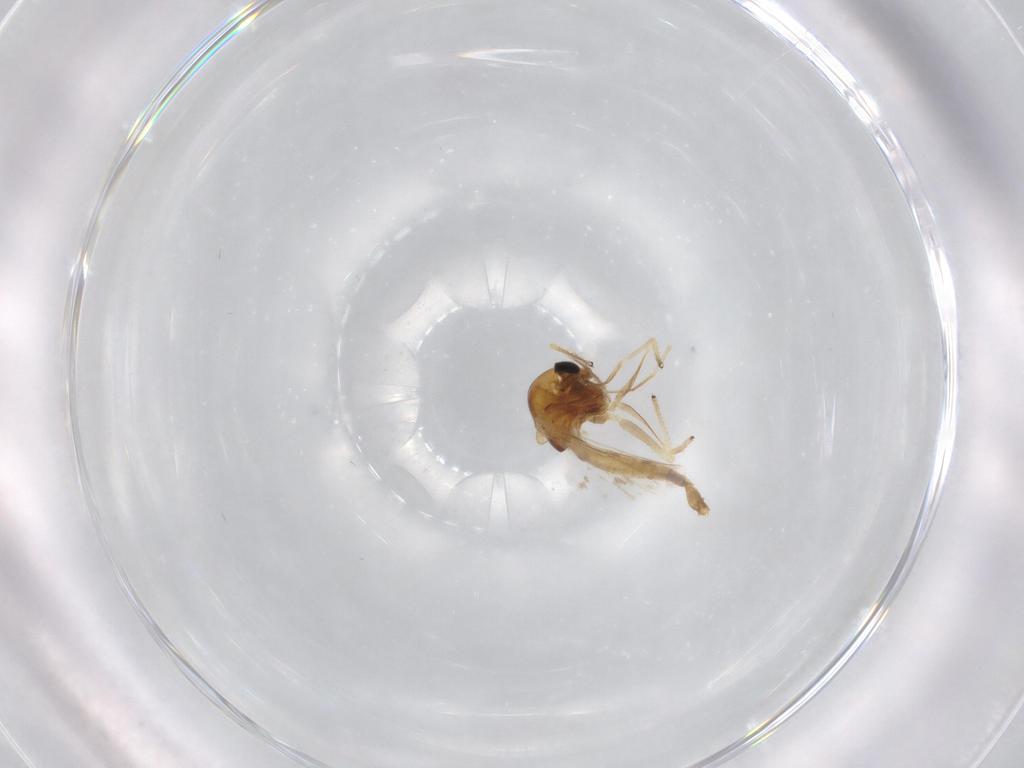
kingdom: Animalia
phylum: Arthropoda
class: Insecta
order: Diptera
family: Chironomidae
